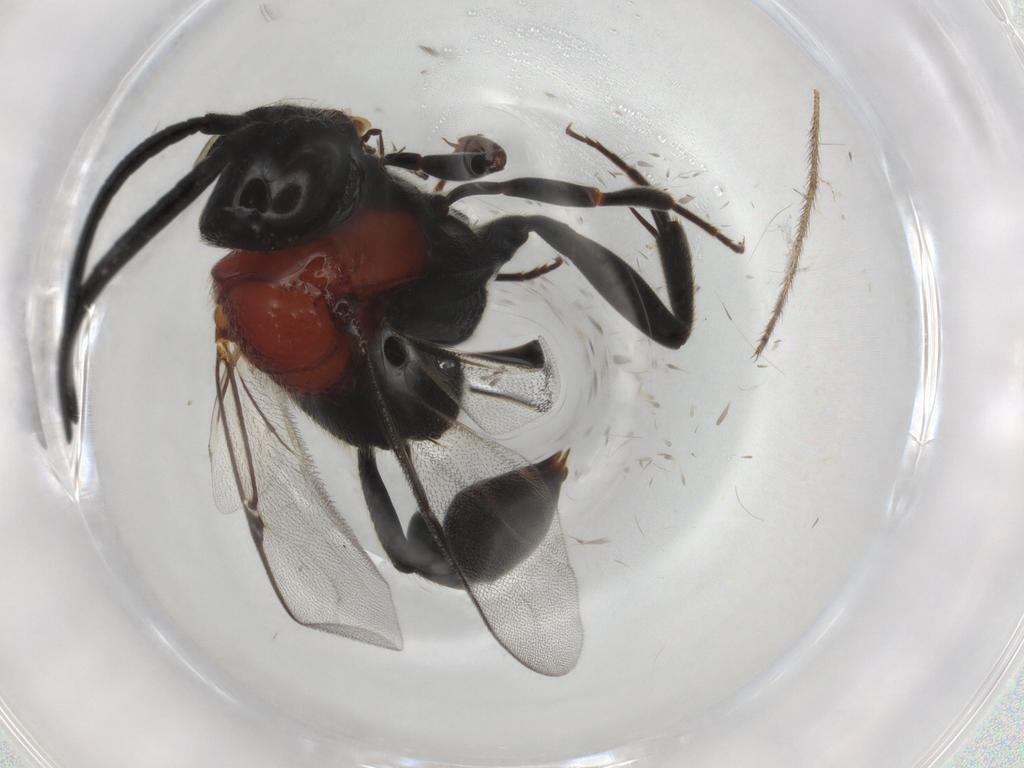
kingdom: Animalia
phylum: Arthropoda
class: Insecta
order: Hymenoptera
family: Evaniidae
